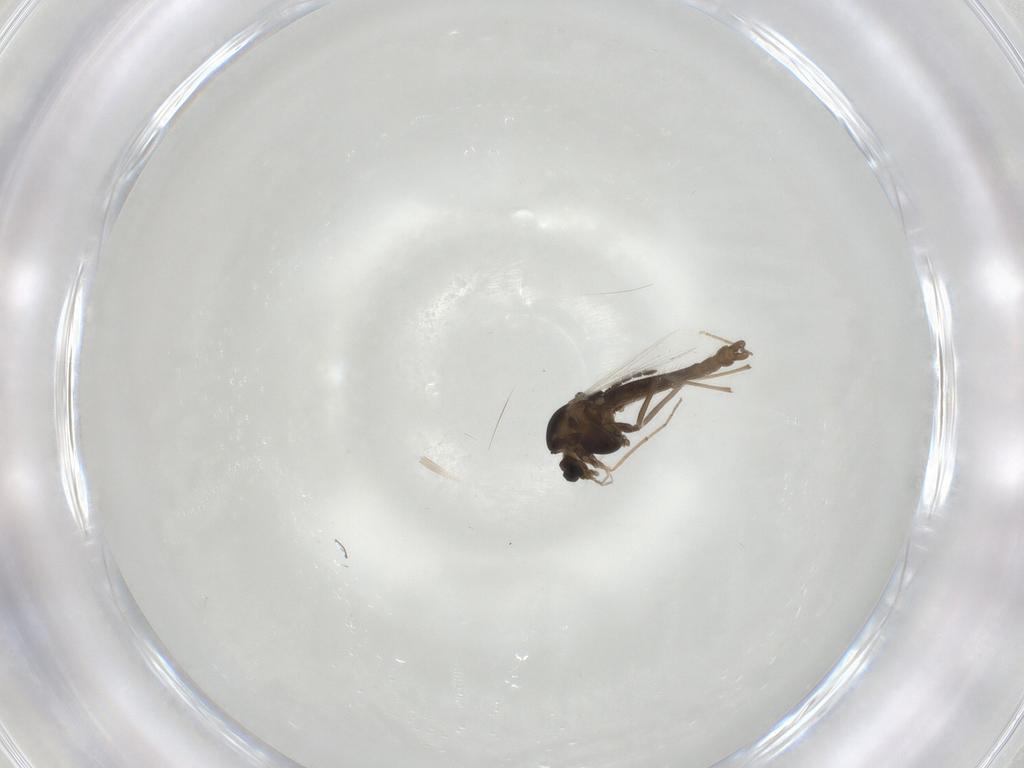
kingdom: Animalia
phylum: Arthropoda
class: Insecta
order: Diptera
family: Chironomidae
